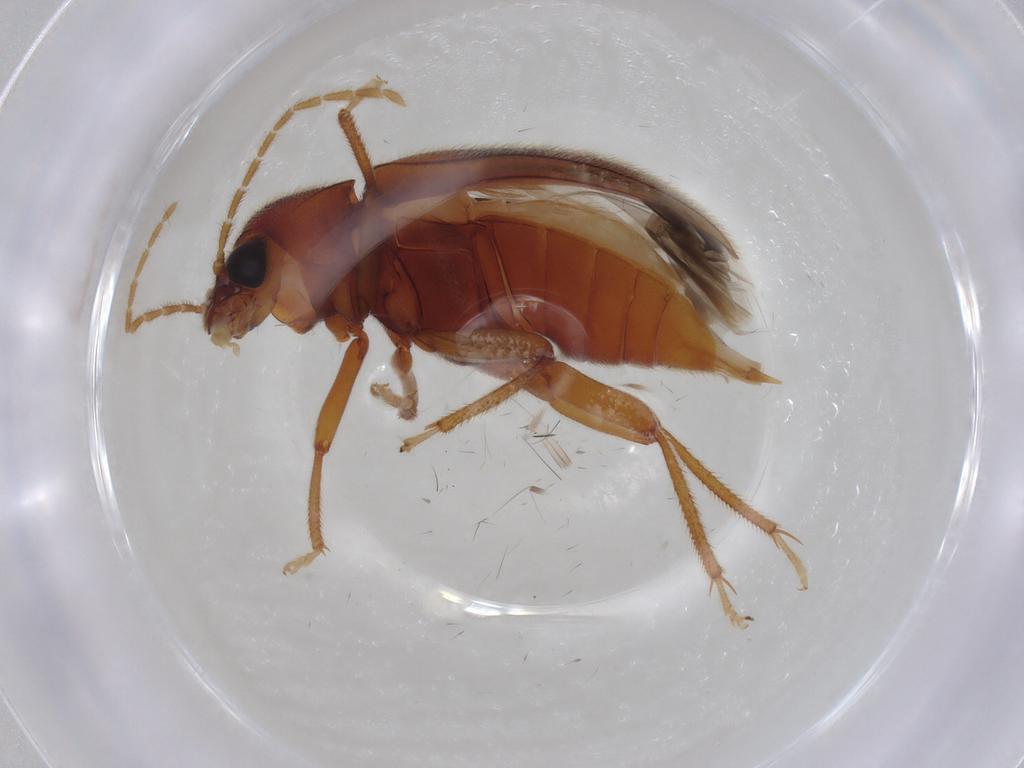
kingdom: Animalia
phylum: Arthropoda
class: Insecta
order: Coleoptera
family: Ptilodactylidae
